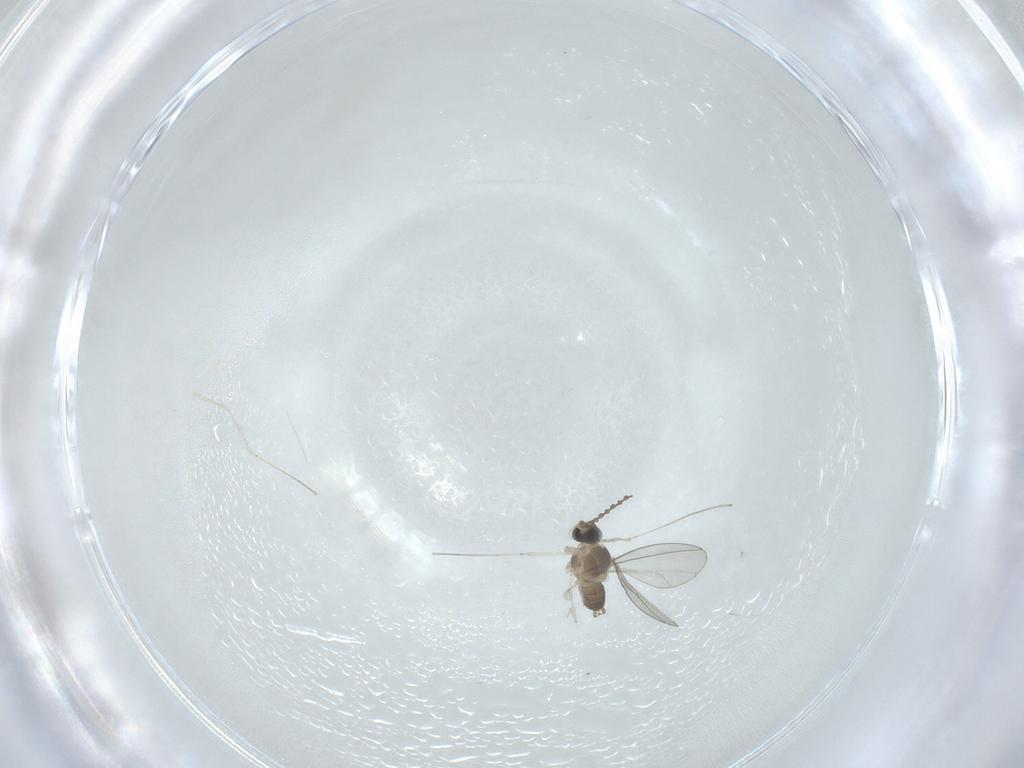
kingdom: Animalia
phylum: Arthropoda
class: Insecta
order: Diptera
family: Cecidomyiidae
